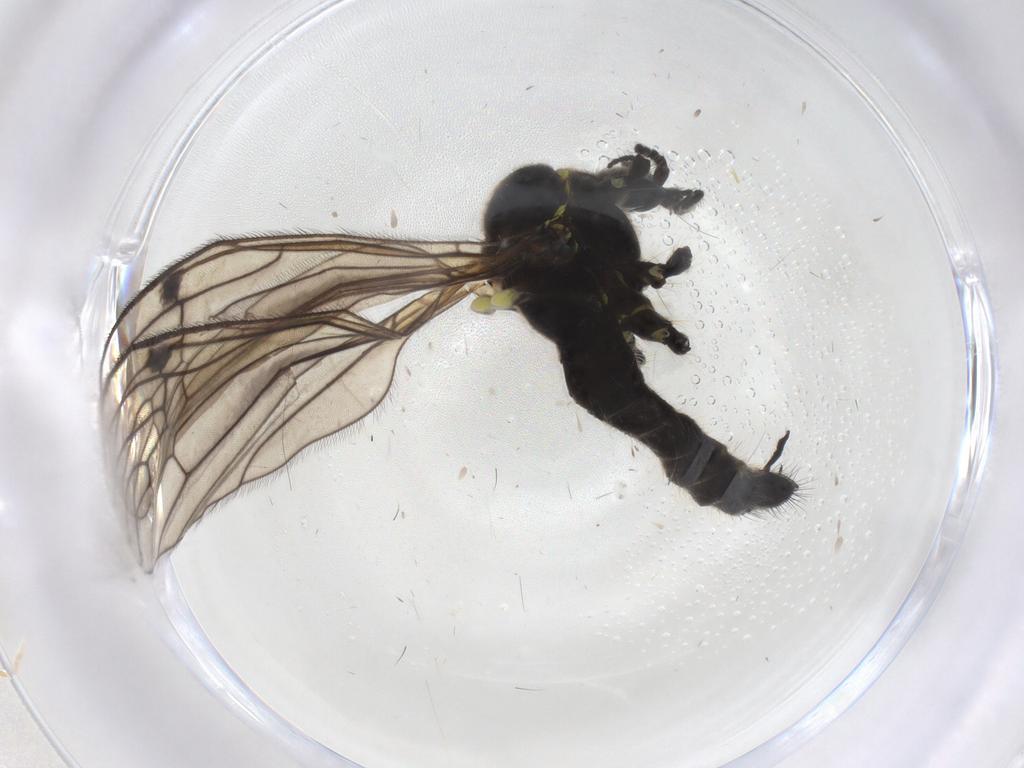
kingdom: Animalia
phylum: Arthropoda
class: Insecta
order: Diptera
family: Limoniidae
